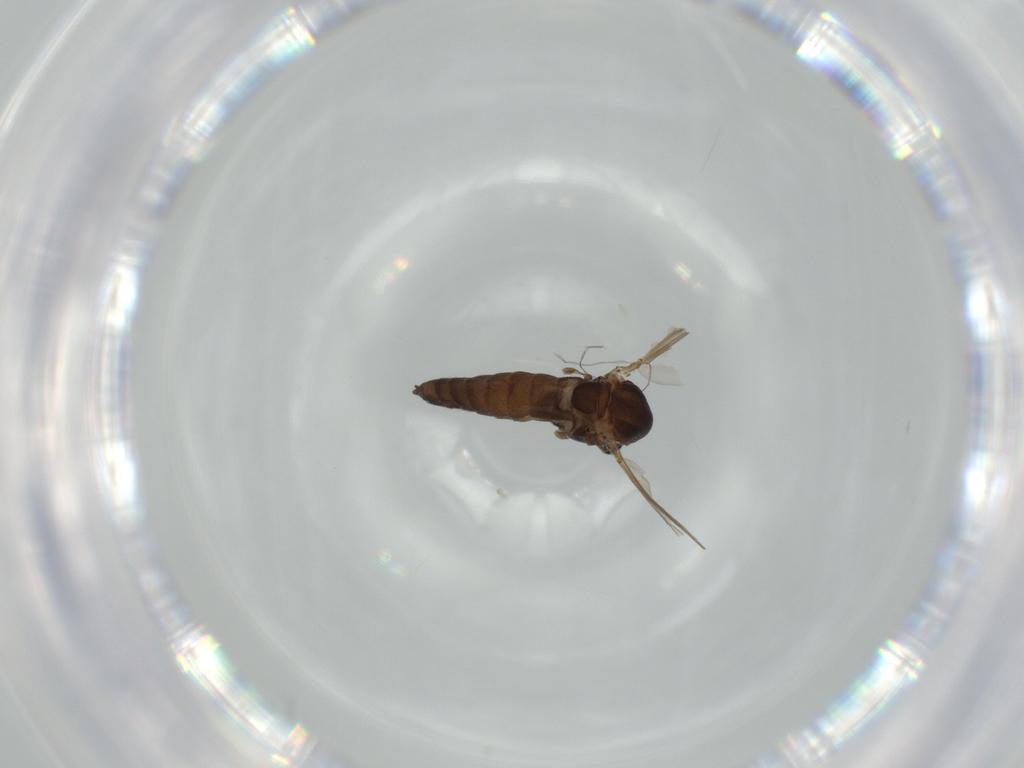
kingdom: Animalia
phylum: Arthropoda
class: Insecta
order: Diptera
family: Chironomidae
